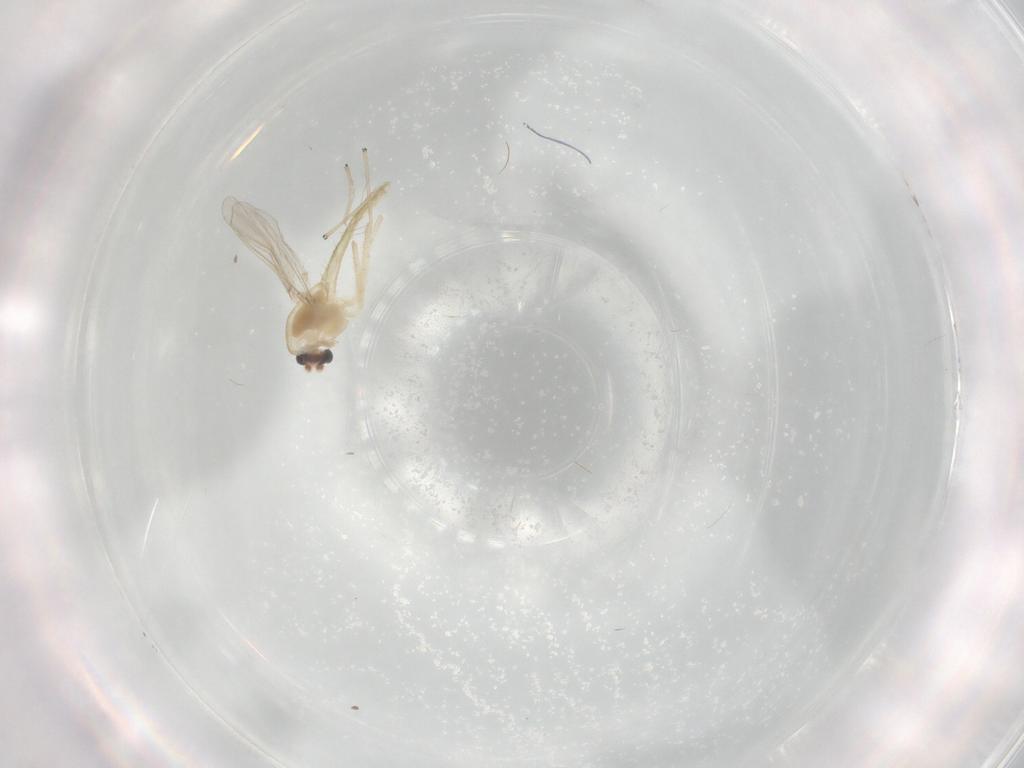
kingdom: Animalia
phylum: Arthropoda
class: Insecta
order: Diptera
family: Chironomidae
